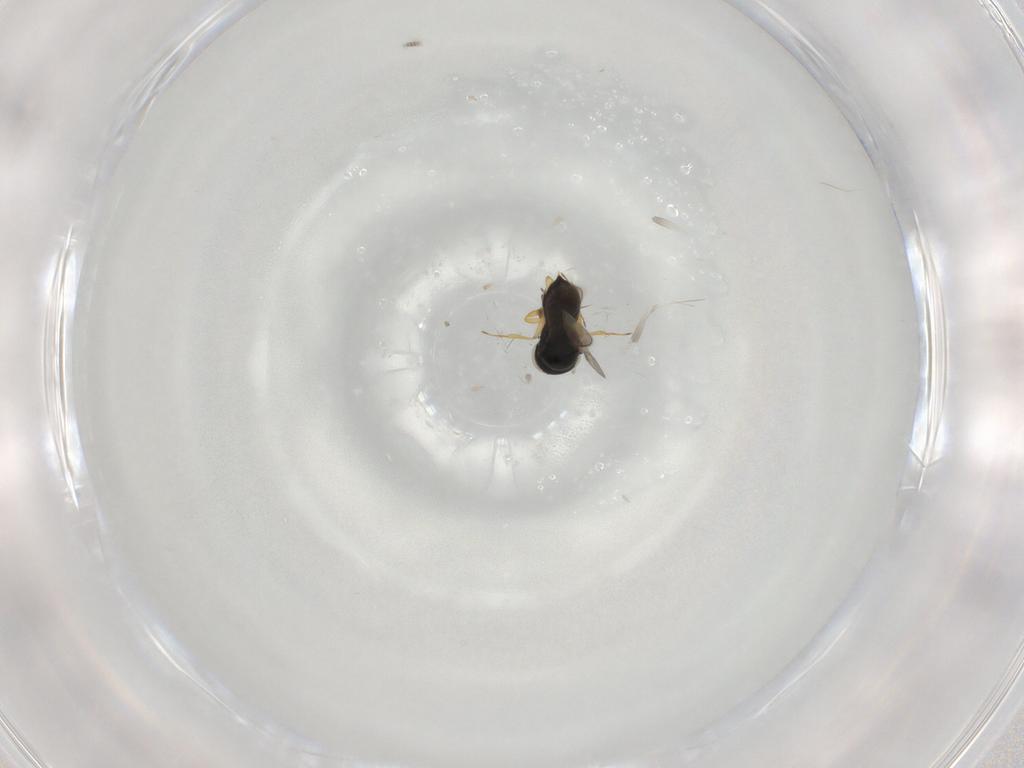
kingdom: Animalia
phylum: Arthropoda
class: Insecta
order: Hymenoptera
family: Scelionidae
